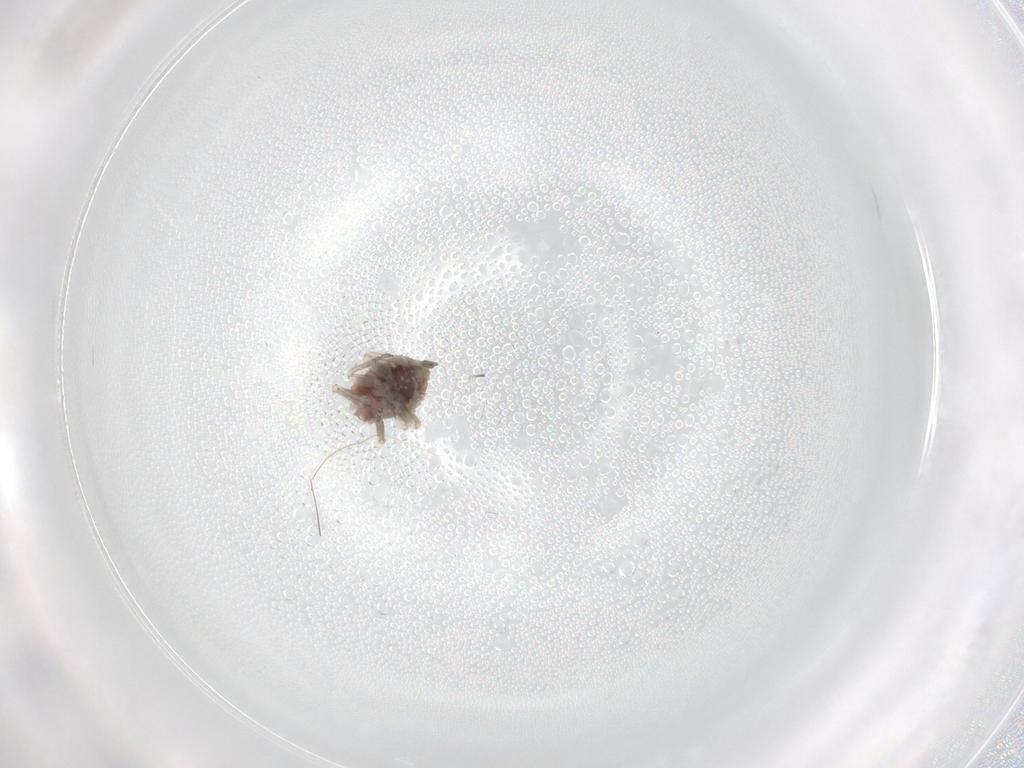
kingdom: Animalia
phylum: Arthropoda
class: Insecta
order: Psocodea
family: Pseudocaeciliidae
